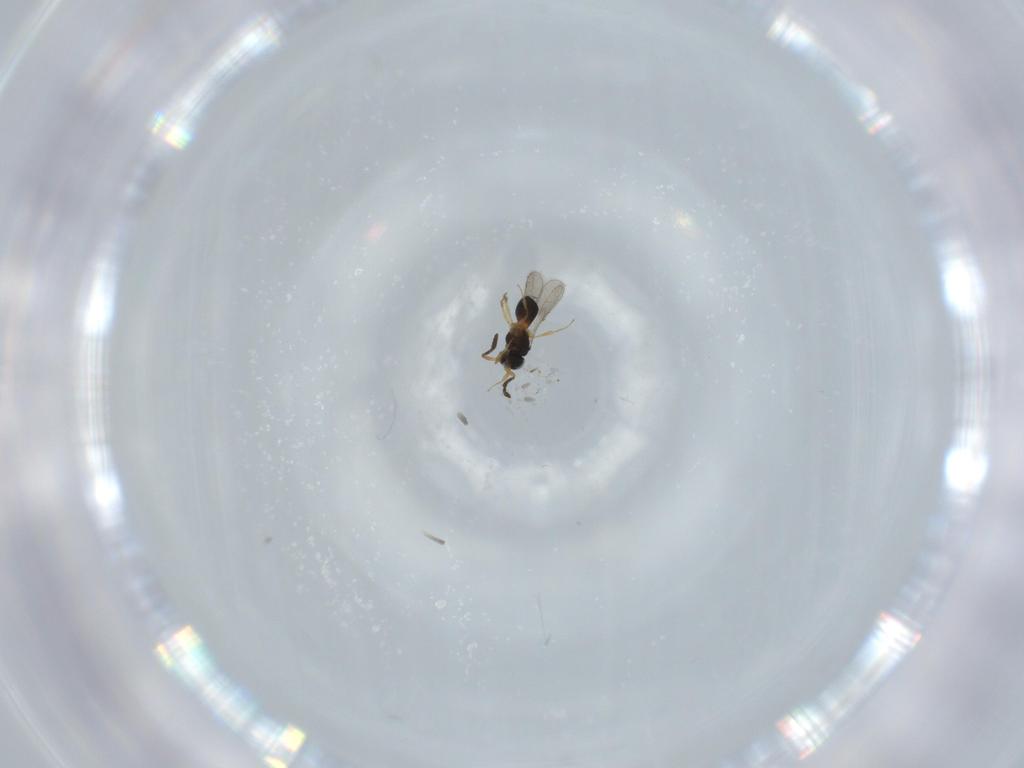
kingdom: Animalia
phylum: Arthropoda
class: Insecta
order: Hymenoptera
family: Scelionidae
